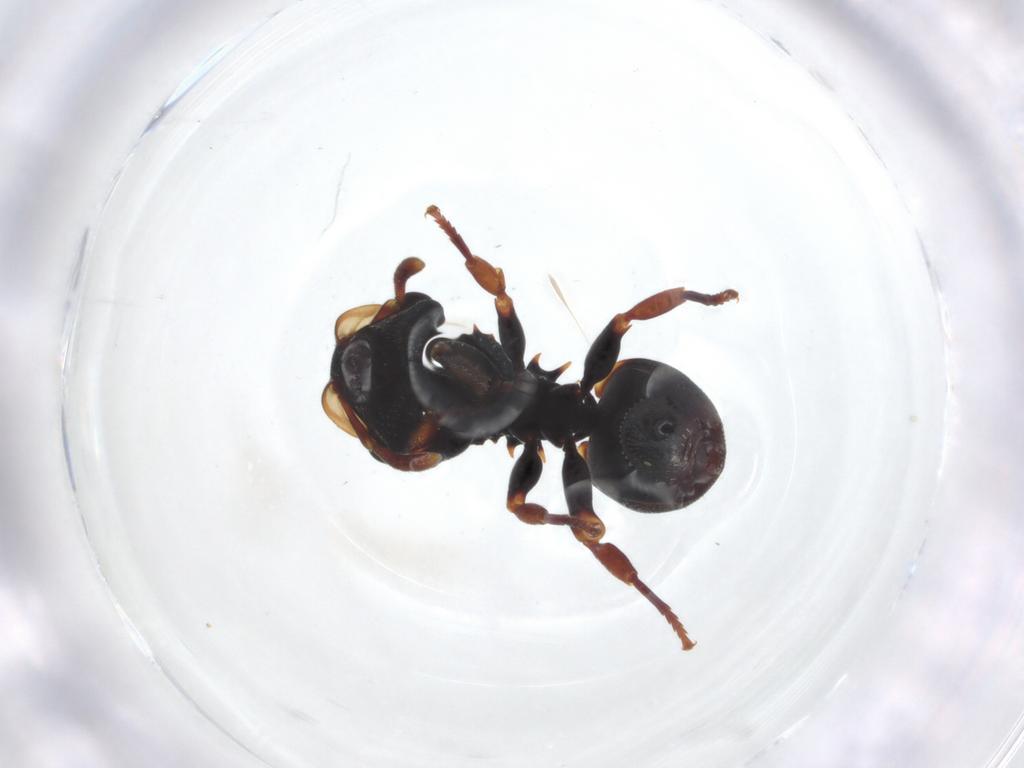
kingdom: Animalia
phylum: Arthropoda
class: Insecta
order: Hymenoptera
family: Formicidae
